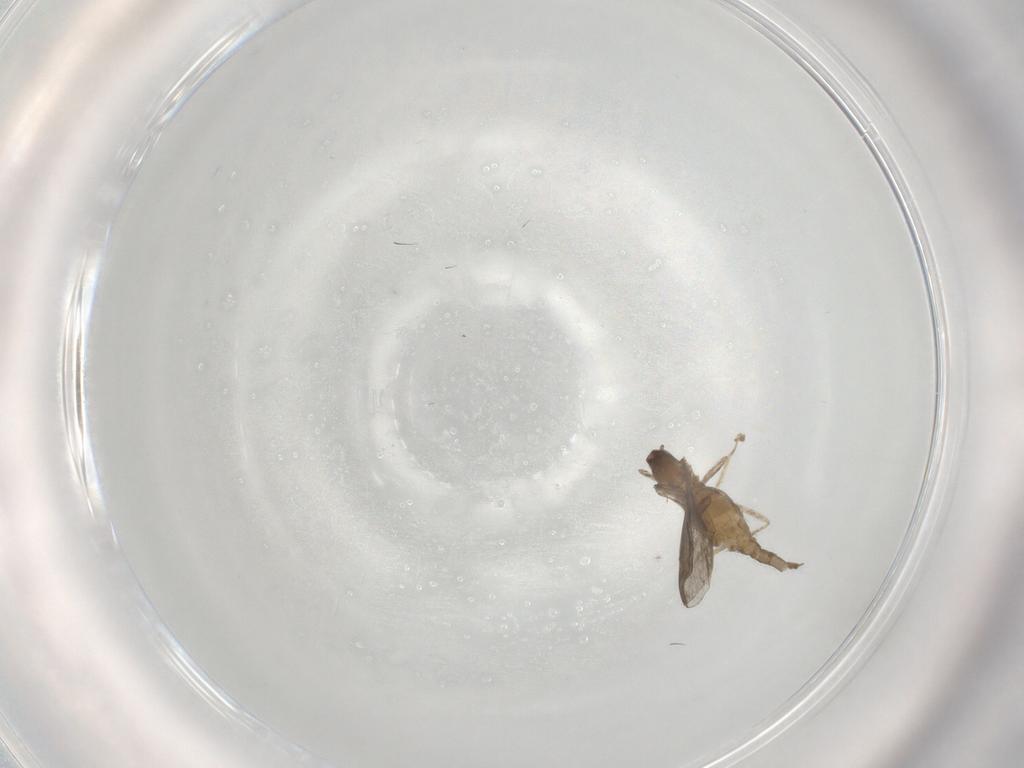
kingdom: Animalia
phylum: Arthropoda
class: Insecta
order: Diptera
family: Cecidomyiidae
